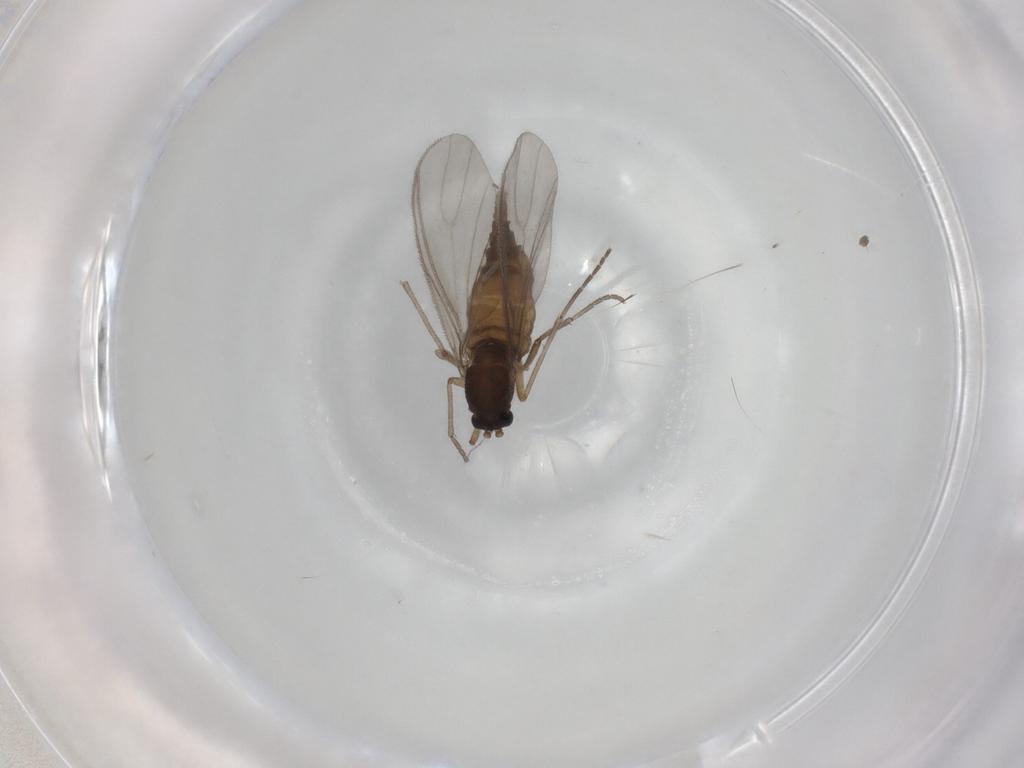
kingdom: Animalia
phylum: Arthropoda
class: Insecta
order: Diptera
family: Sciaridae
